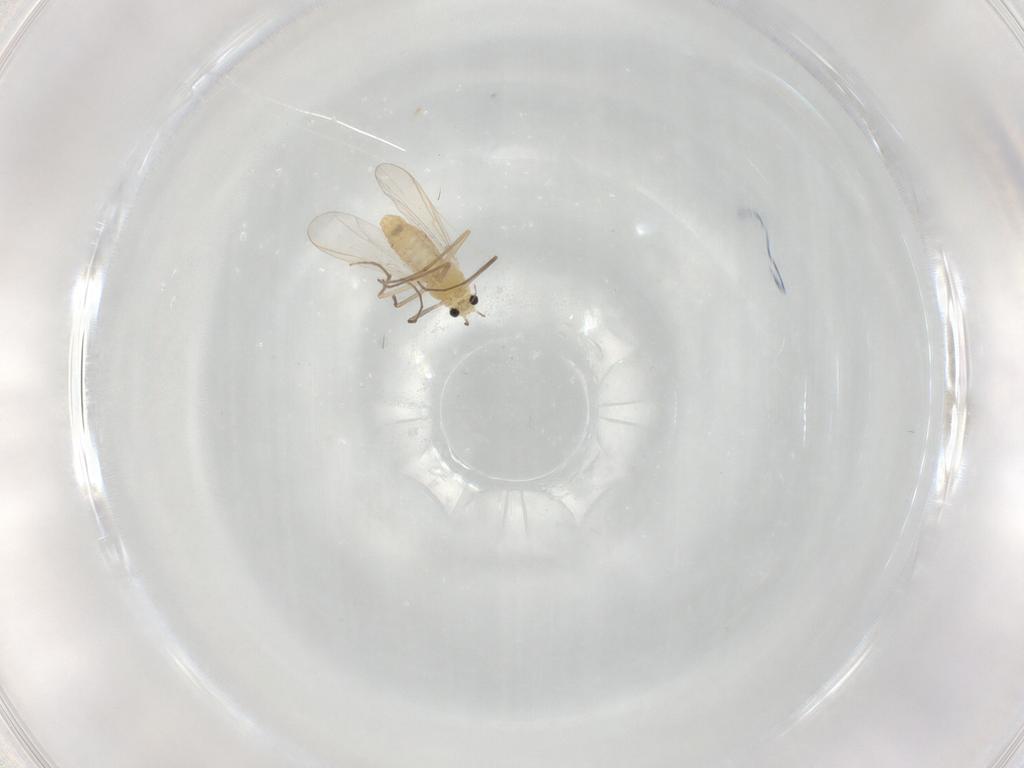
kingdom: Animalia
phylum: Arthropoda
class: Insecta
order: Diptera
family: Chironomidae
